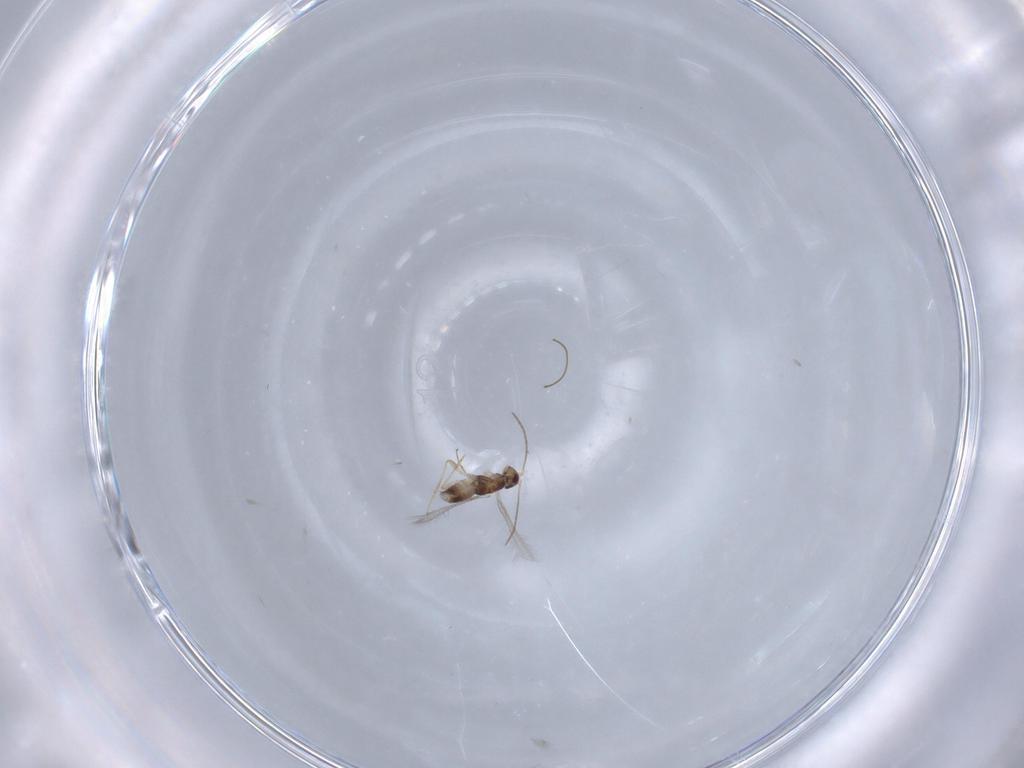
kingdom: Animalia
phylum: Arthropoda
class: Insecta
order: Hymenoptera
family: Mymaridae
